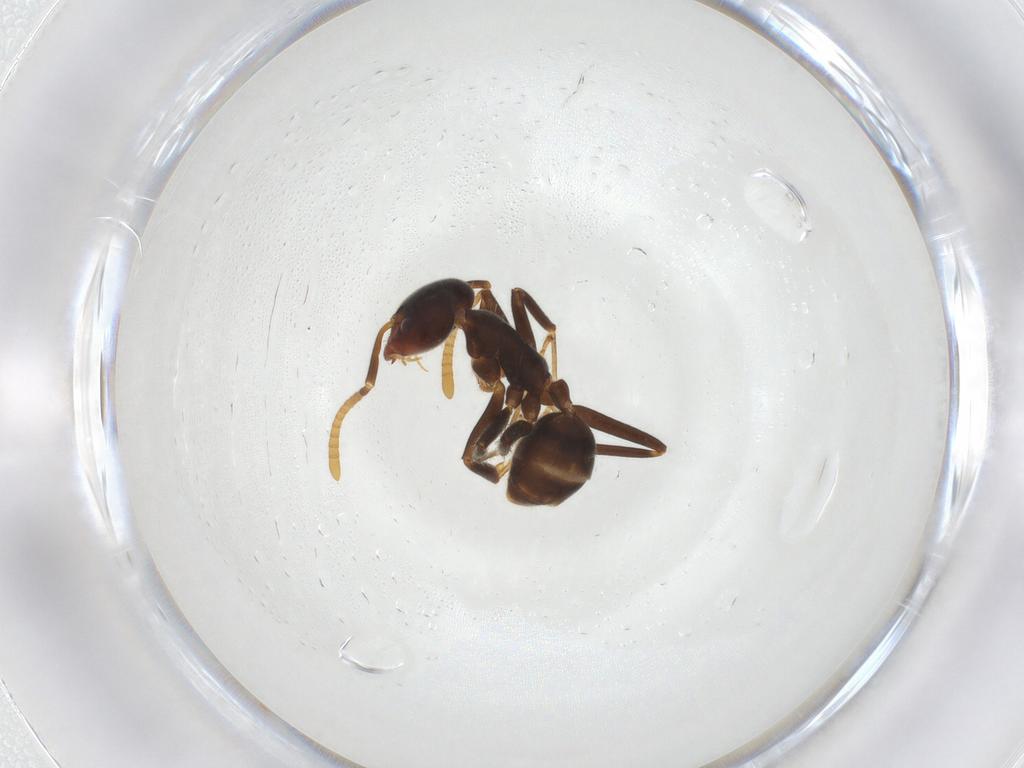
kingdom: Animalia
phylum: Arthropoda
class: Insecta
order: Hymenoptera
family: Formicidae
